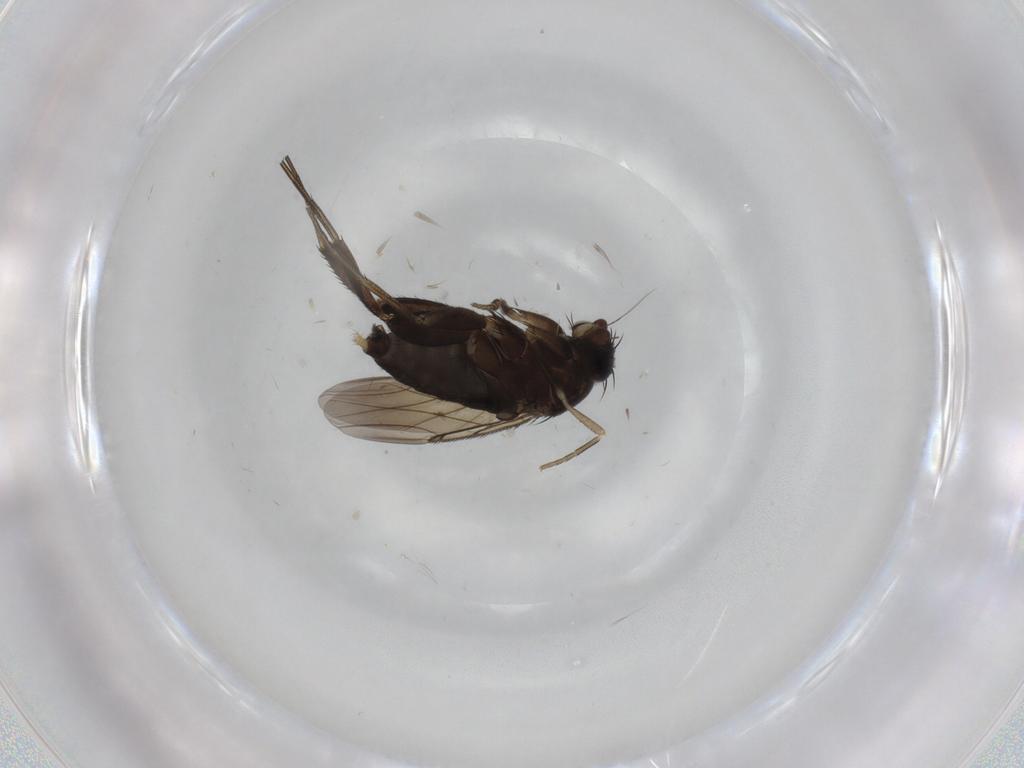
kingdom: Animalia
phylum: Arthropoda
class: Insecta
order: Diptera
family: Phoridae
